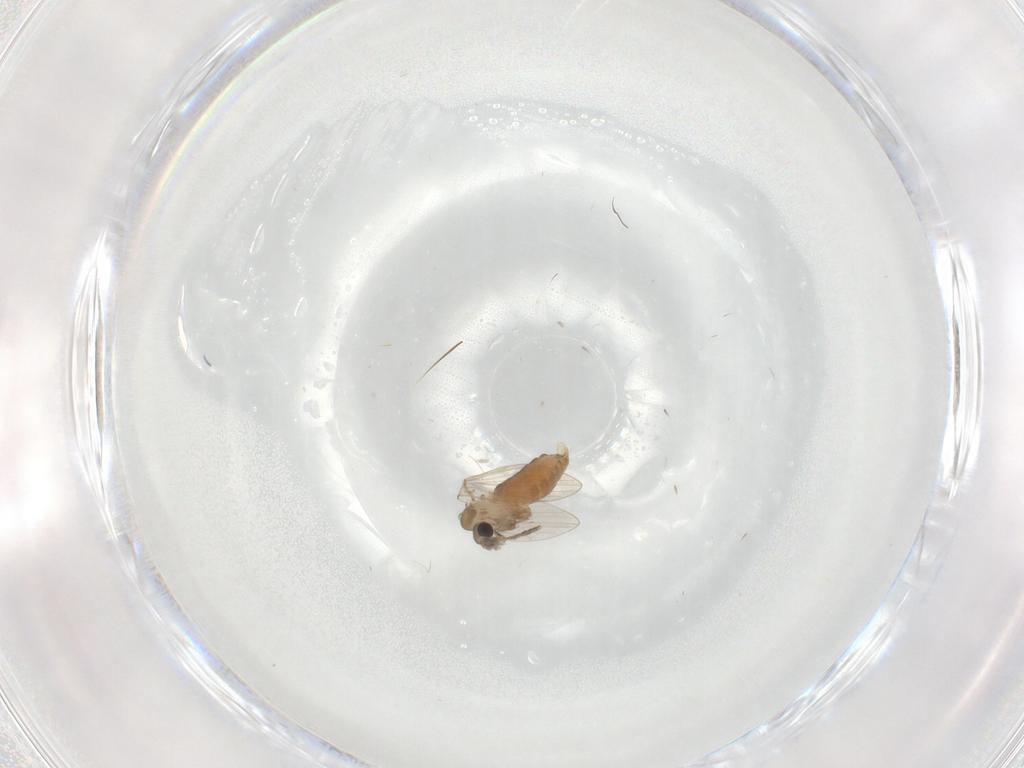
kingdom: Animalia
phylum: Arthropoda
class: Insecta
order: Diptera
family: Psychodidae
